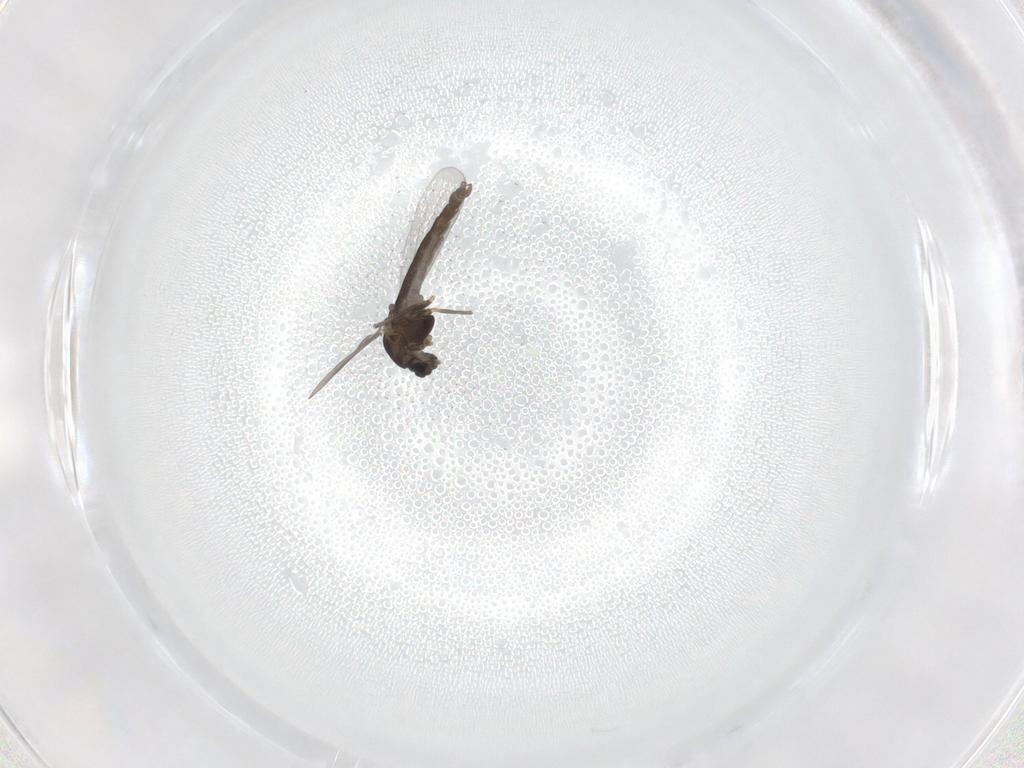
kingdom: Animalia
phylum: Arthropoda
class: Insecta
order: Diptera
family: Chironomidae
